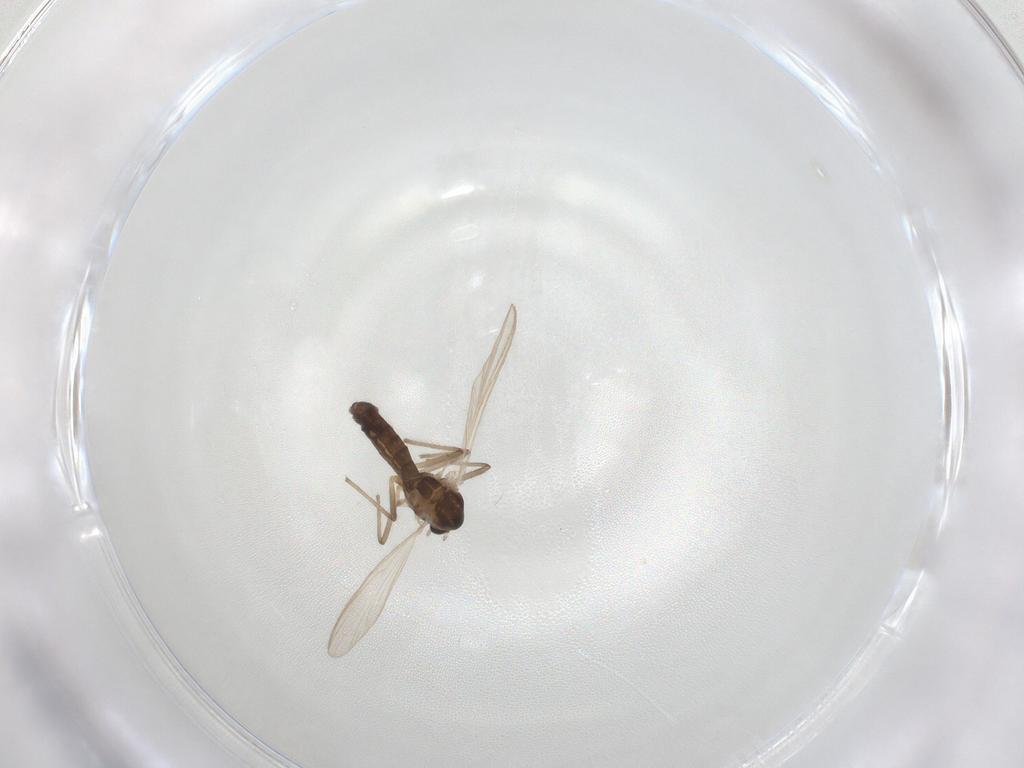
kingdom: Animalia
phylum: Arthropoda
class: Insecta
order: Diptera
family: Chironomidae
